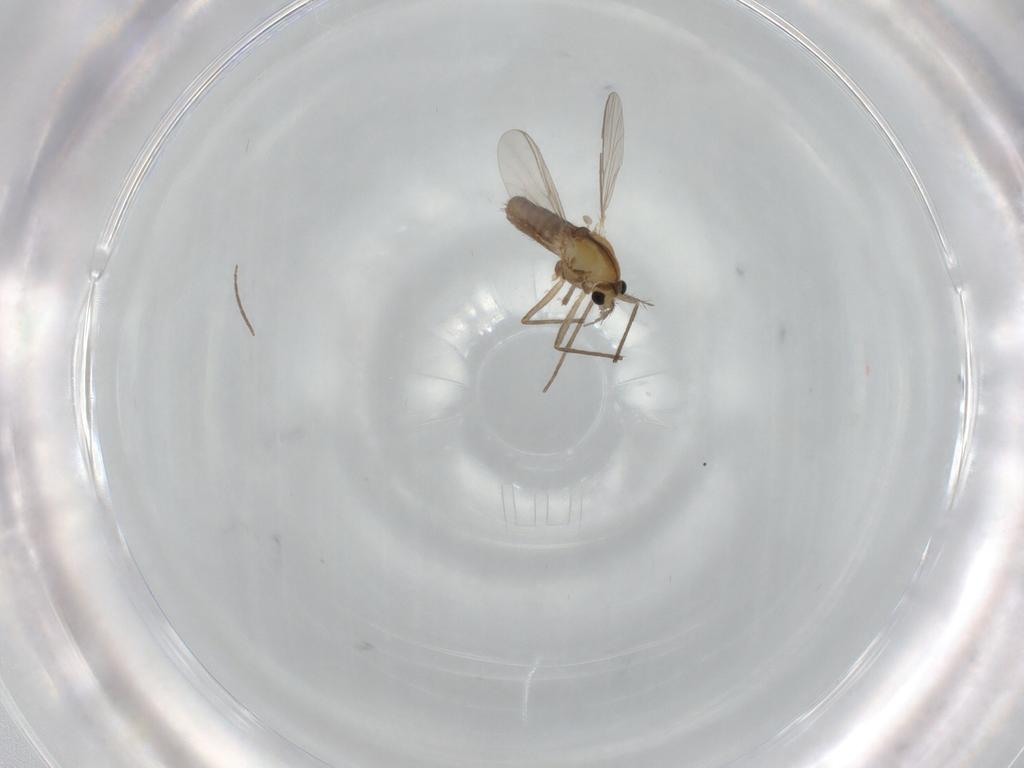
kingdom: Animalia
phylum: Arthropoda
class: Insecta
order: Diptera
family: Chironomidae
